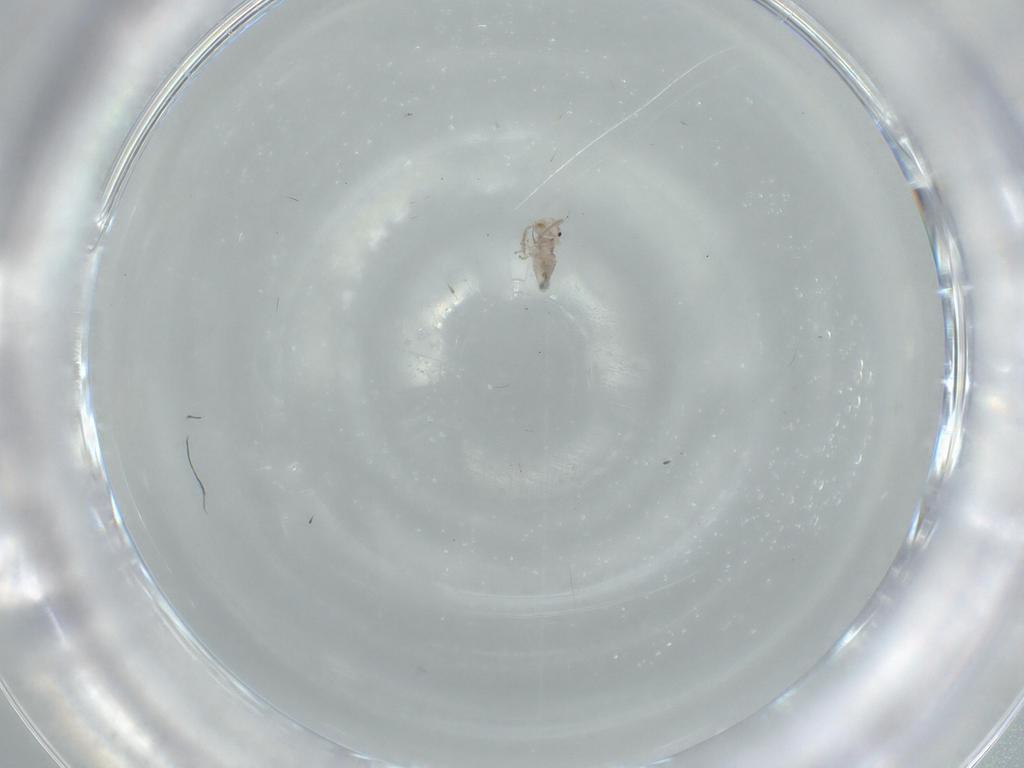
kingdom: Animalia
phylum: Arthropoda
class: Insecta
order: Psocodea
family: Caeciliusidae
